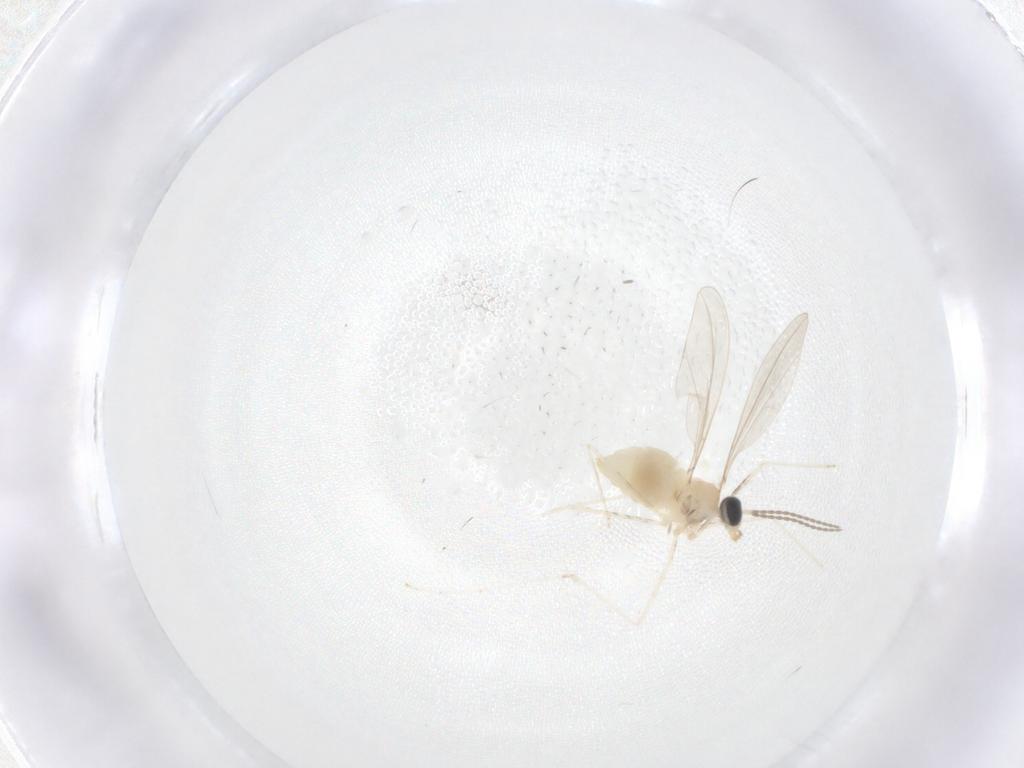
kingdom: Animalia
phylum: Arthropoda
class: Insecta
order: Diptera
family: Cecidomyiidae
